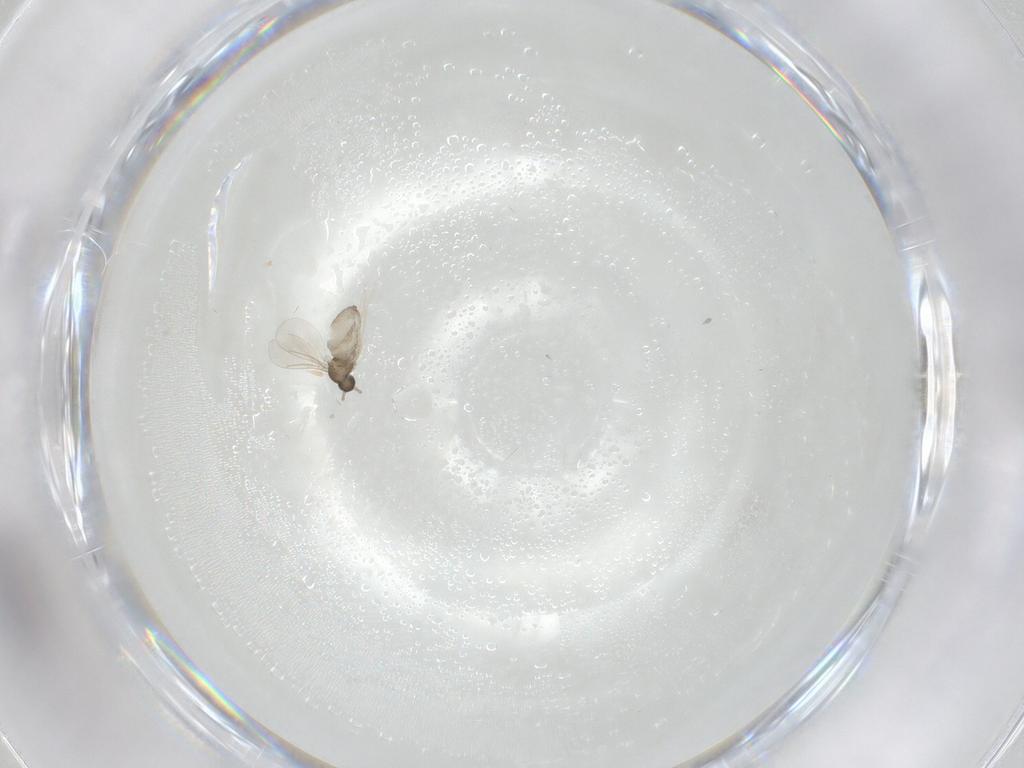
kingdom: Animalia
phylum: Arthropoda
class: Insecta
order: Diptera
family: Cecidomyiidae
